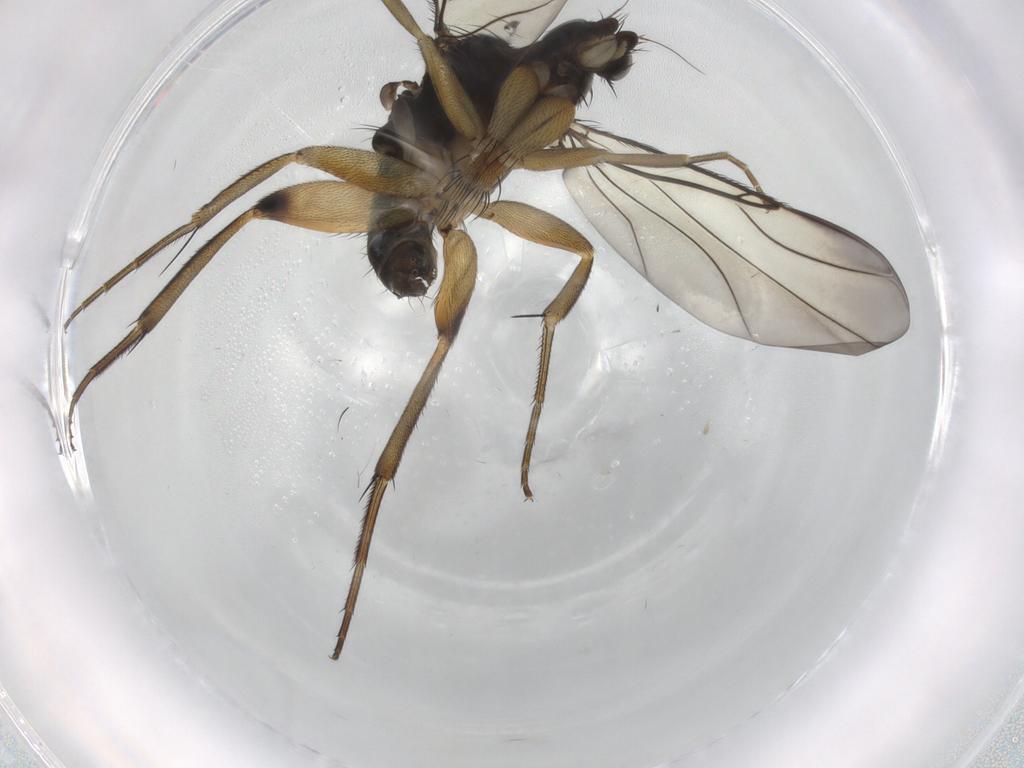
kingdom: Animalia
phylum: Arthropoda
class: Insecta
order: Diptera
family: Phoridae
